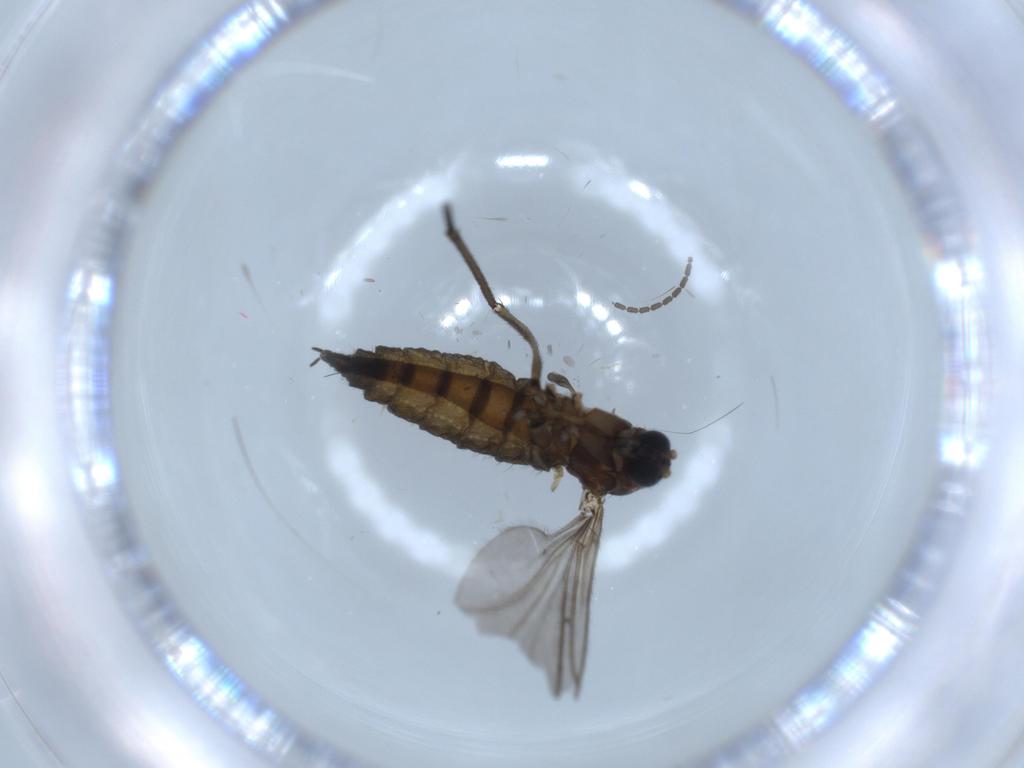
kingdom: Animalia
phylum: Arthropoda
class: Insecta
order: Diptera
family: Sciaridae
